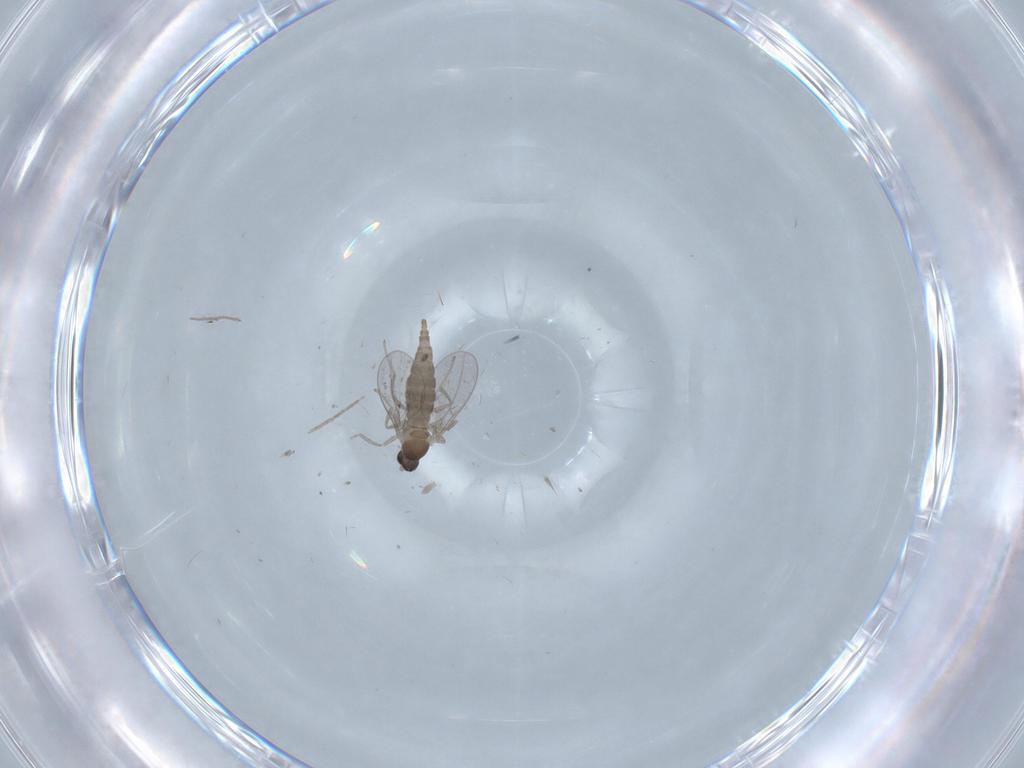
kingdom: Animalia
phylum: Arthropoda
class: Insecta
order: Diptera
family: Cecidomyiidae
